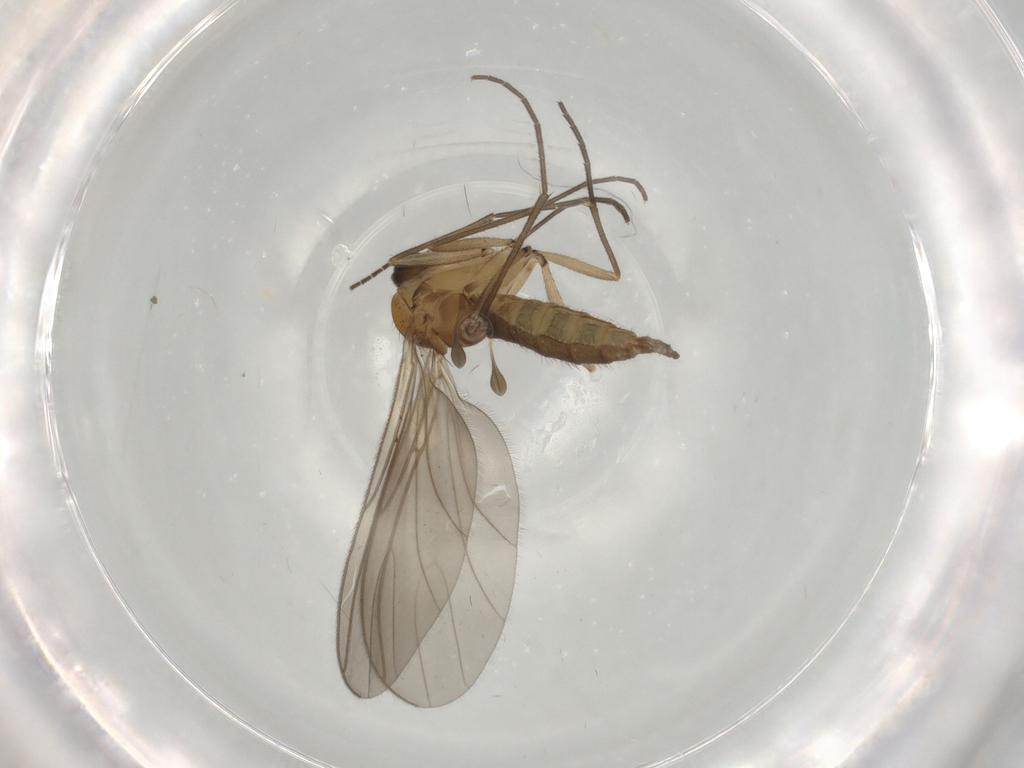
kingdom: Animalia
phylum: Arthropoda
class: Insecta
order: Diptera
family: Sciaridae
